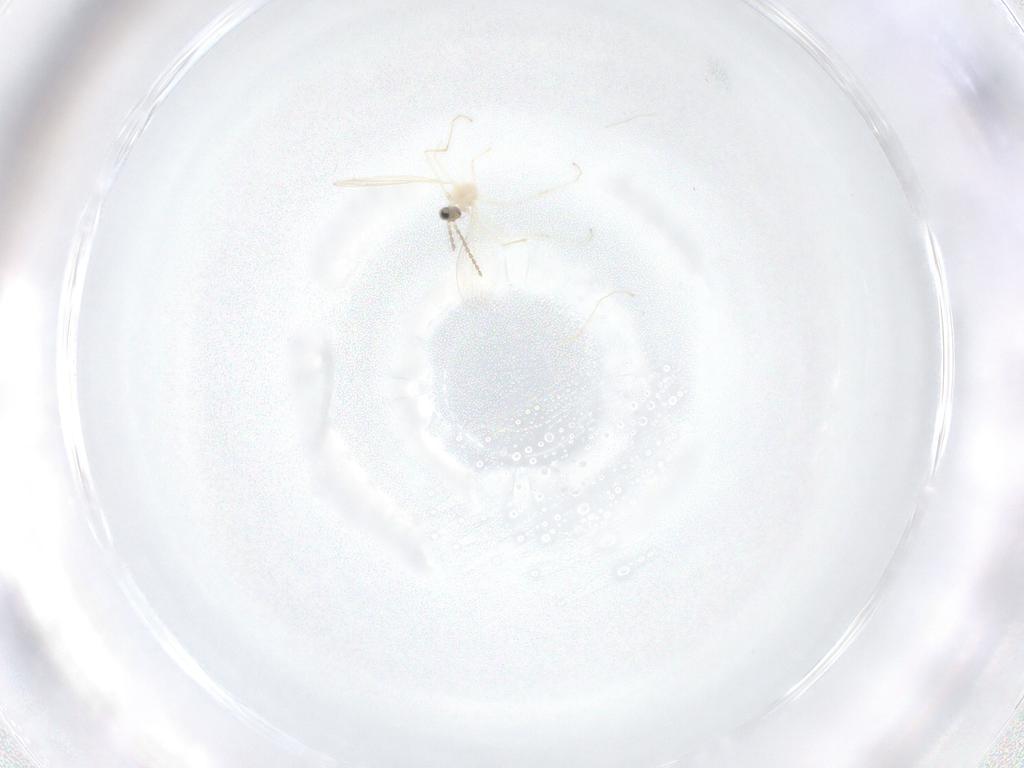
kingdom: Animalia
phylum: Arthropoda
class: Insecta
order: Diptera
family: Cecidomyiidae
